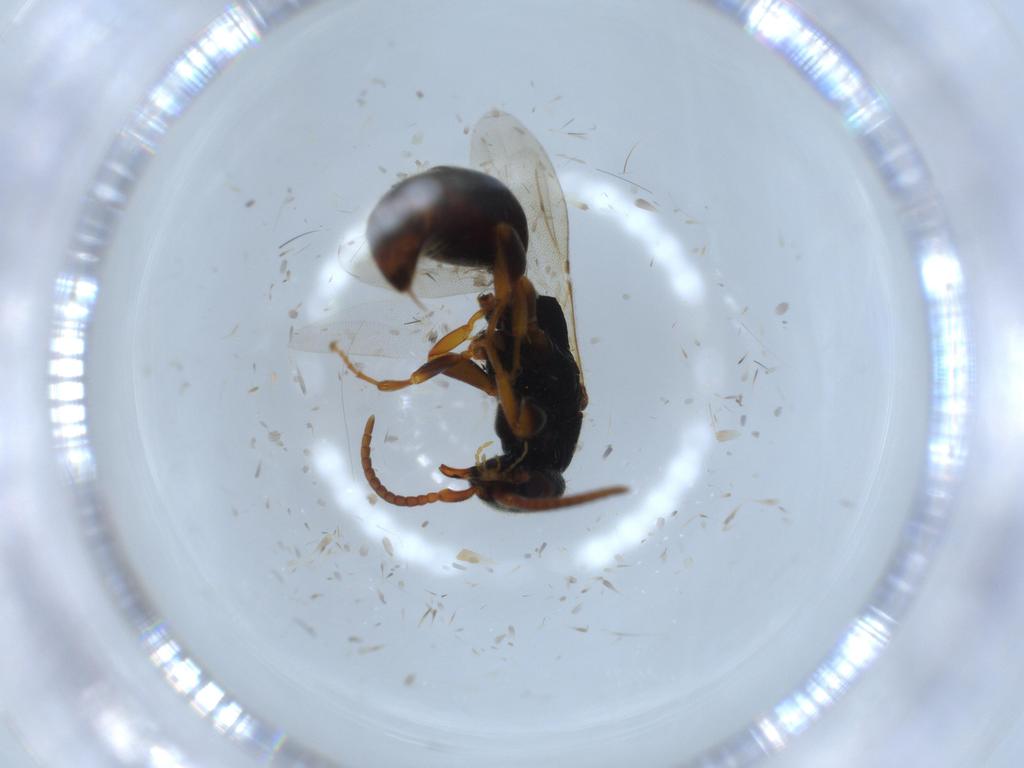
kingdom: Animalia
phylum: Arthropoda
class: Insecta
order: Hymenoptera
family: Bethylidae
